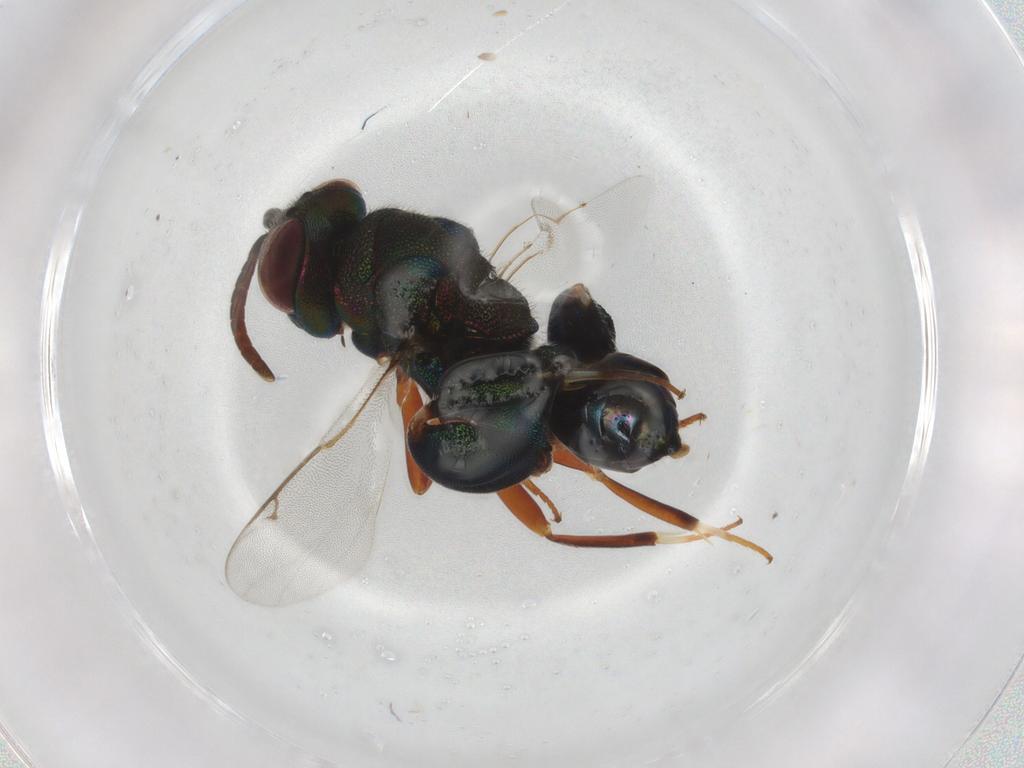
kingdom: Animalia
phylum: Arthropoda
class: Insecta
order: Hymenoptera
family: Eupelmidae
